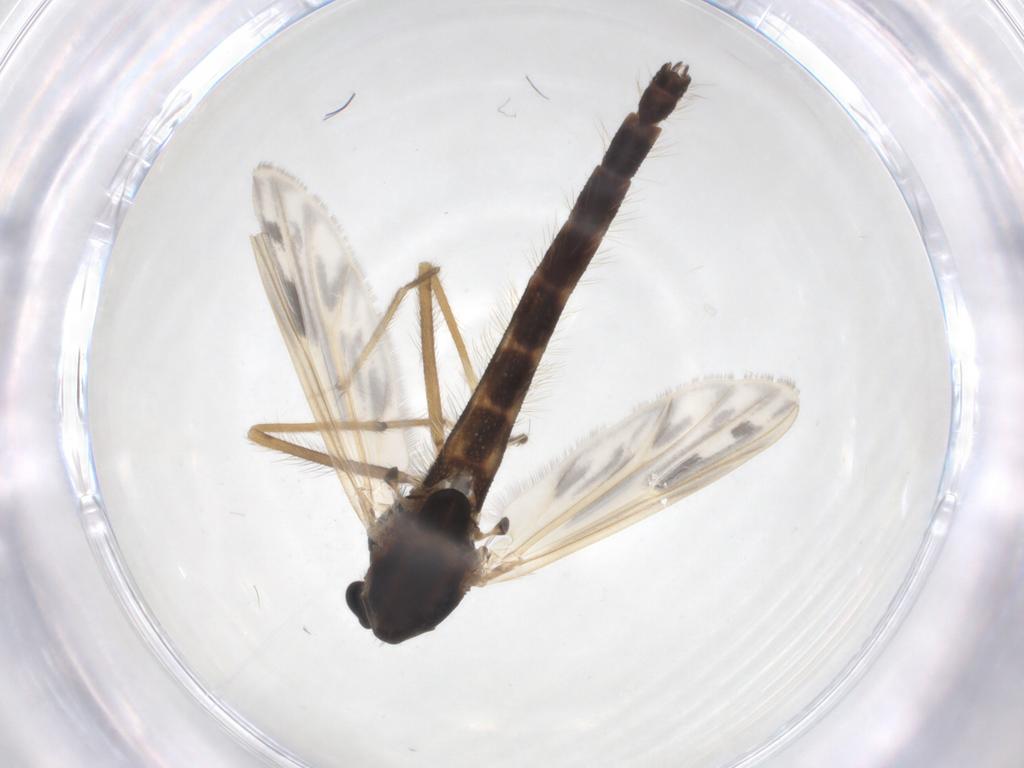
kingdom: Animalia
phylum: Arthropoda
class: Insecta
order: Diptera
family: Chironomidae
